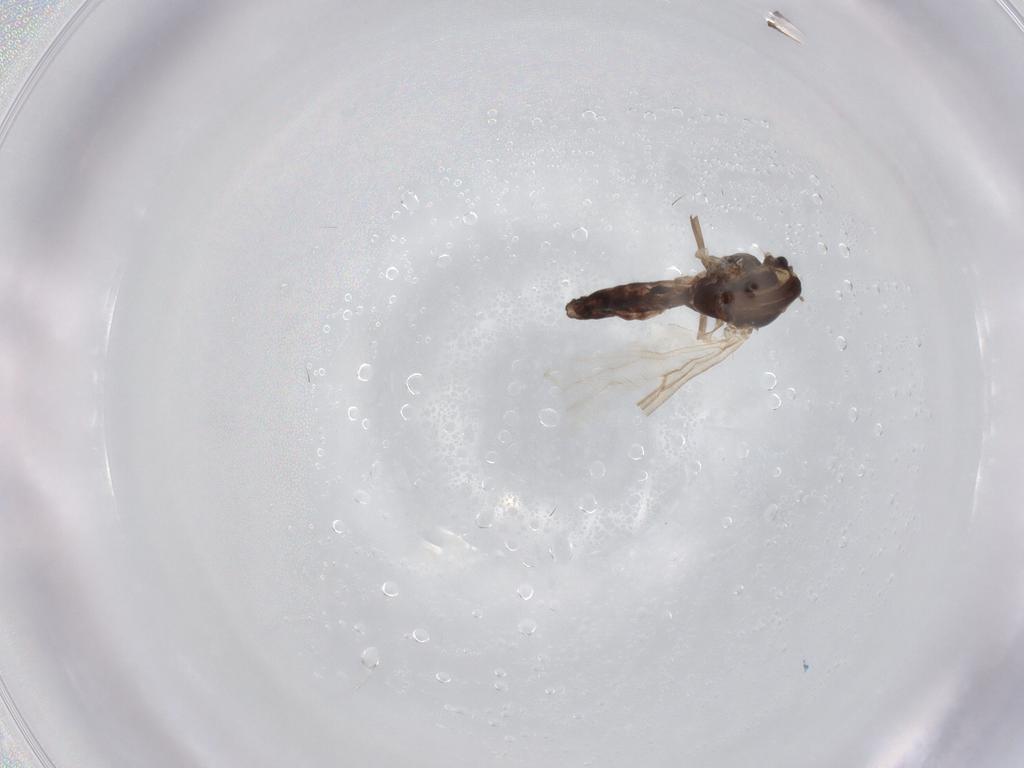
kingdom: Animalia
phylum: Arthropoda
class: Insecta
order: Diptera
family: Chironomidae
